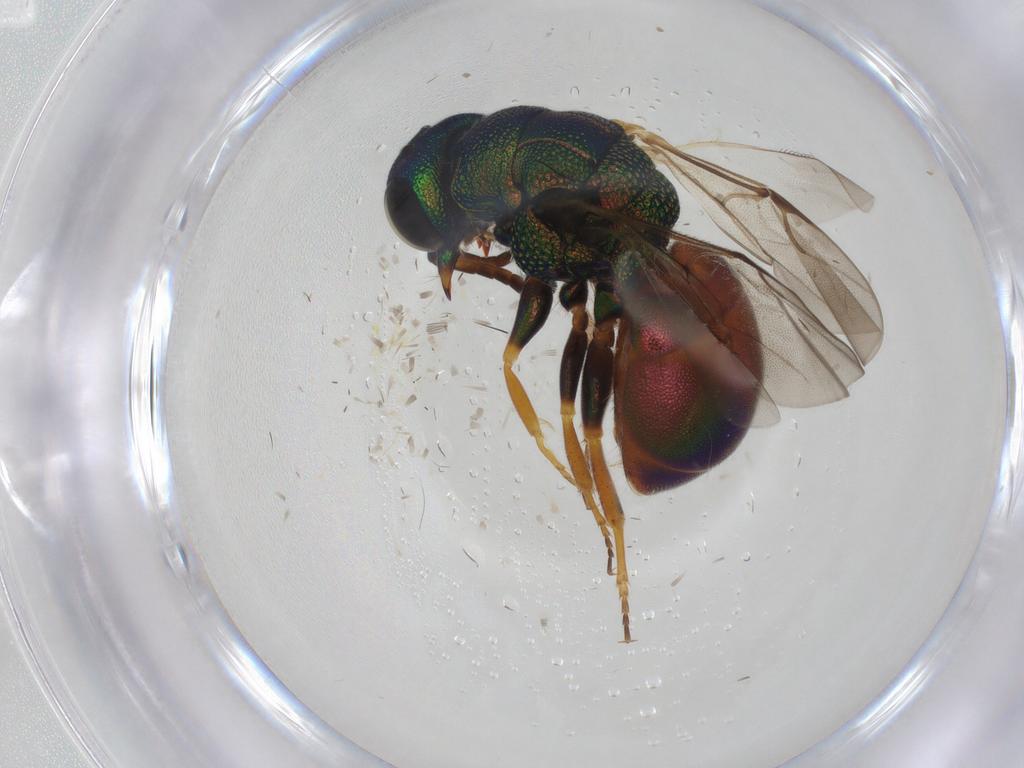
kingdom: Animalia
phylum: Arthropoda
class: Insecta
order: Hymenoptera
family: Chrysididae
